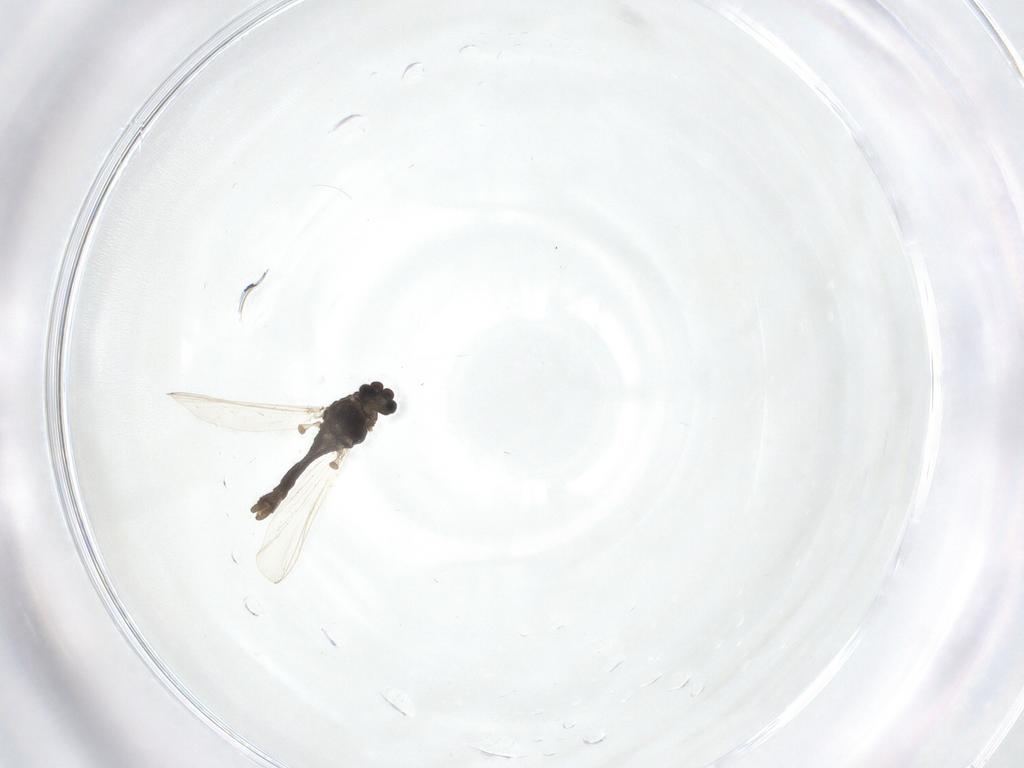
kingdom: Animalia
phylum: Arthropoda
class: Insecta
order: Diptera
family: Chironomidae
